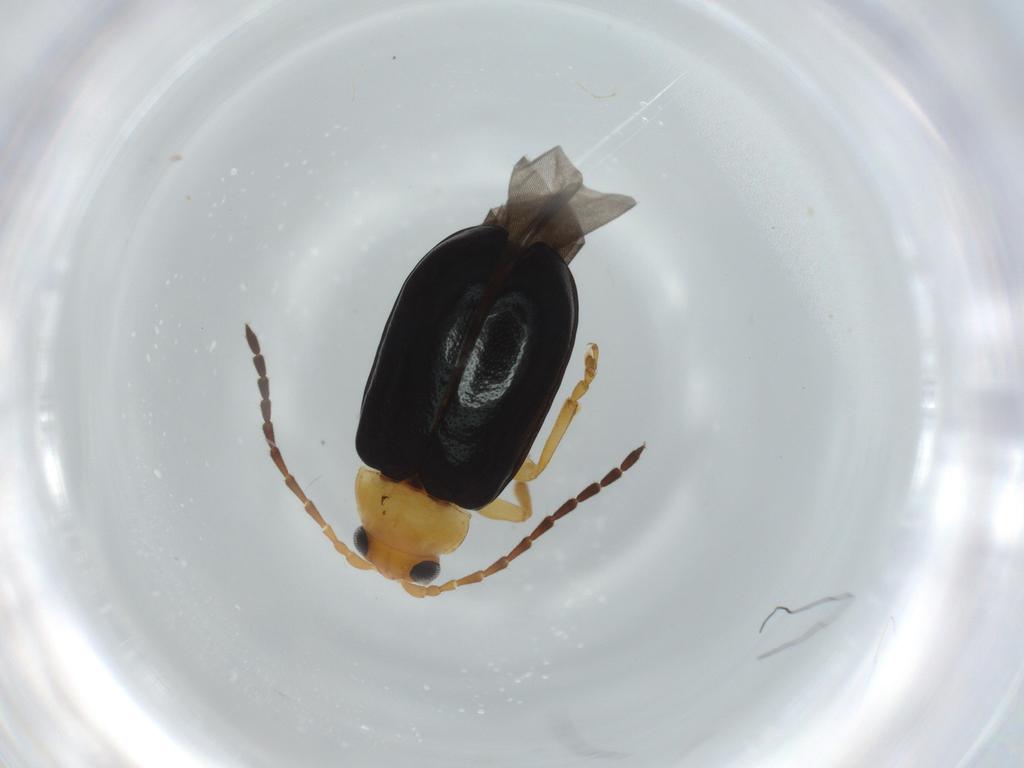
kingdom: Animalia
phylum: Arthropoda
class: Insecta
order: Coleoptera
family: Chrysomelidae
